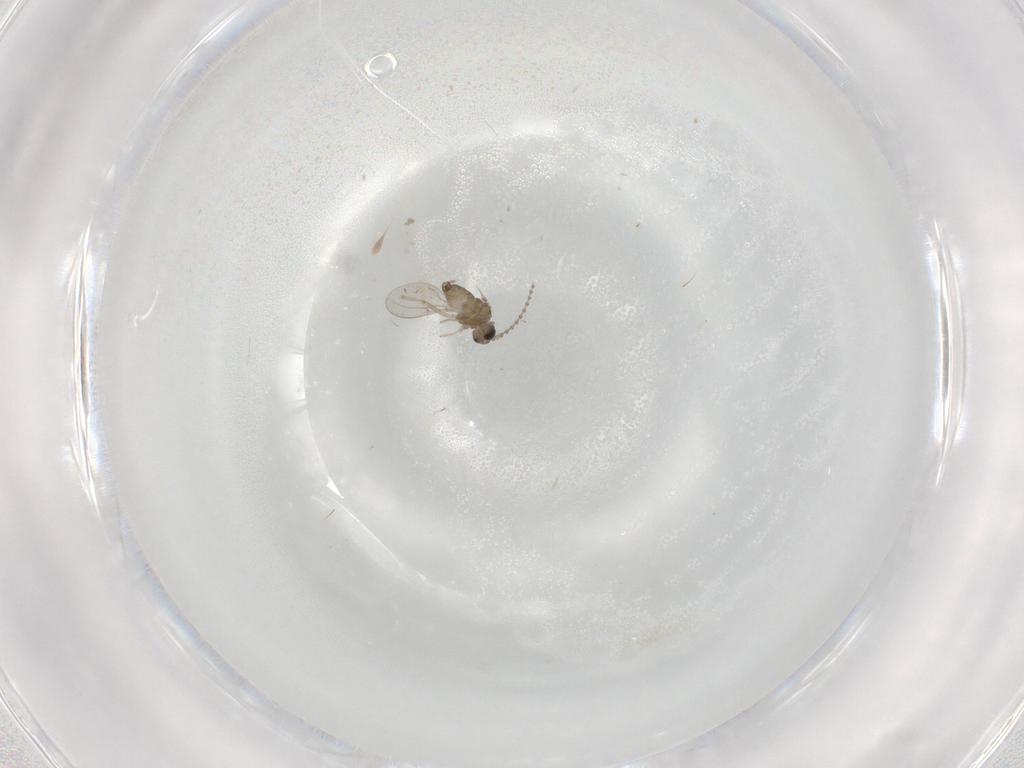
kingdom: Animalia
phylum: Arthropoda
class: Insecta
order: Diptera
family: Cecidomyiidae
